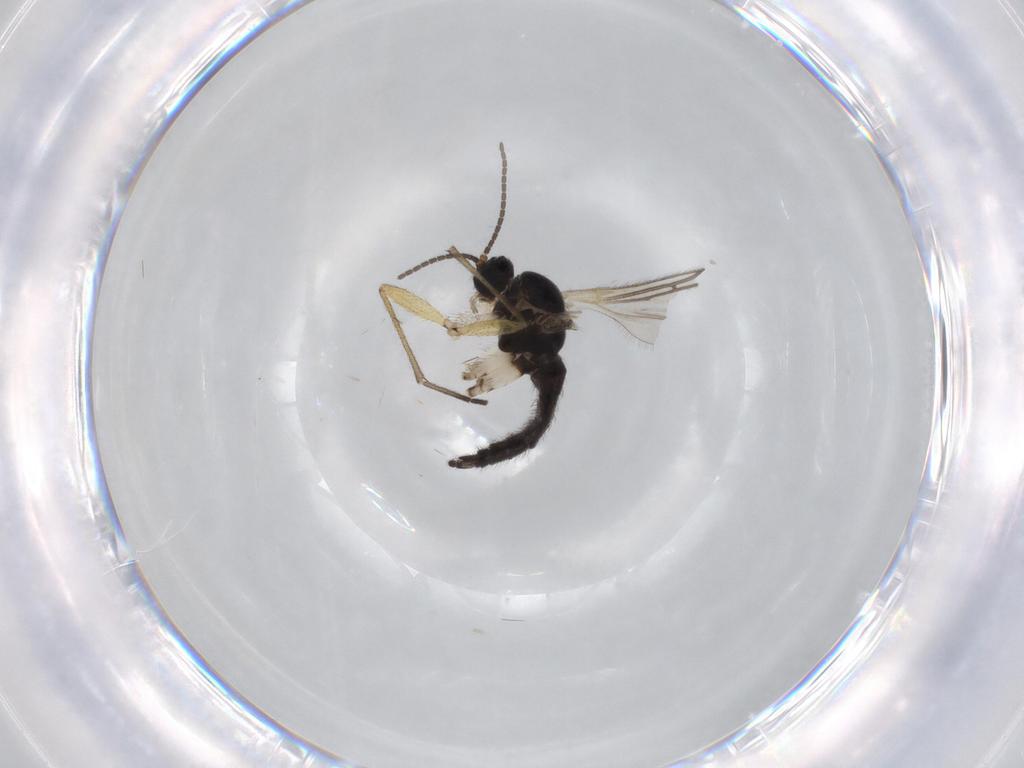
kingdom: Animalia
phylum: Arthropoda
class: Insecta
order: Diptera
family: Sciaridae
